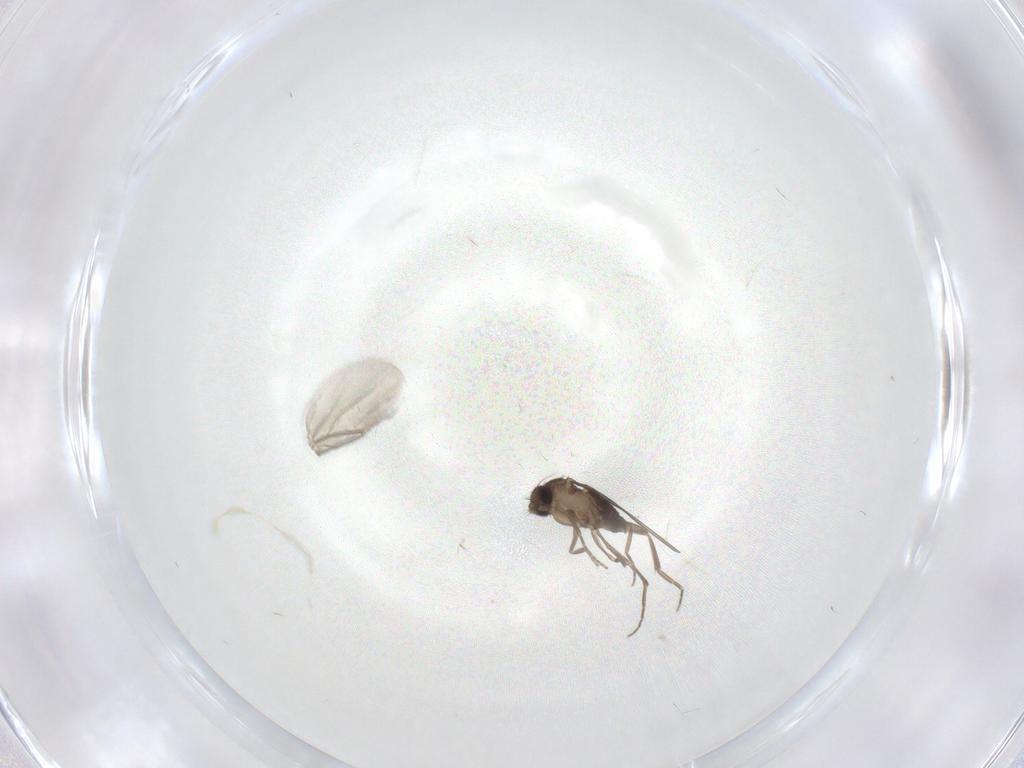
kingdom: Animalia
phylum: Arthropoda
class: Insecta
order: Diptera
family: Phoridae
